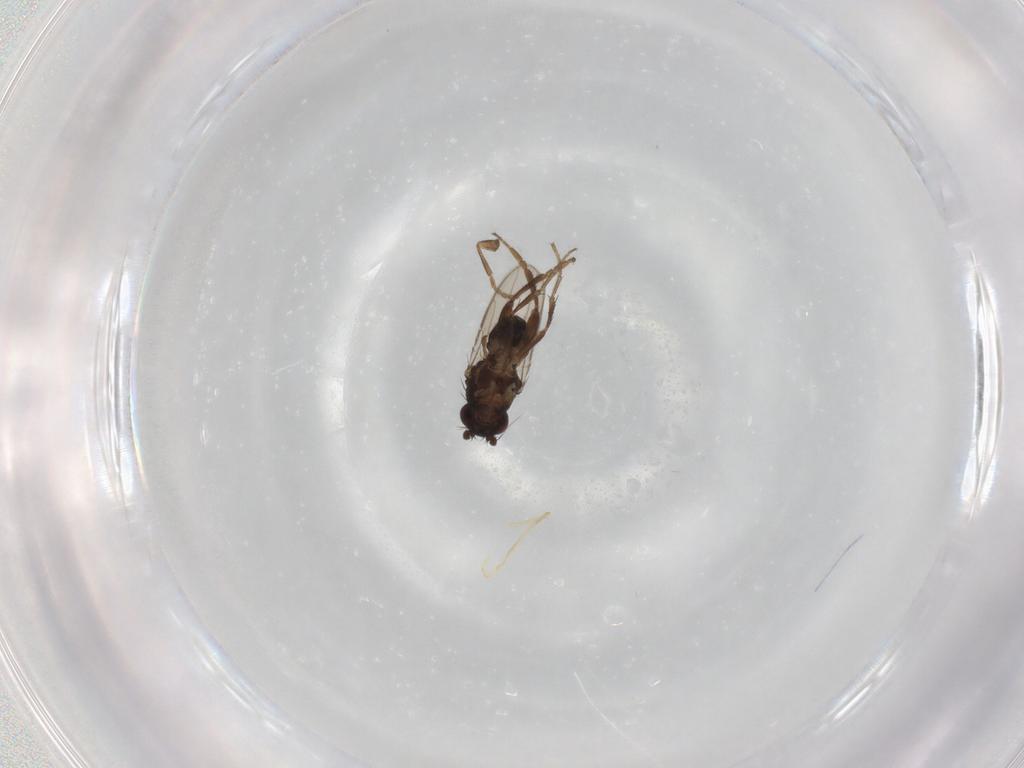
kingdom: Animalia
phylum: Arthropoda
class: Insecta
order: Diptera
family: Sphaeroceridae
